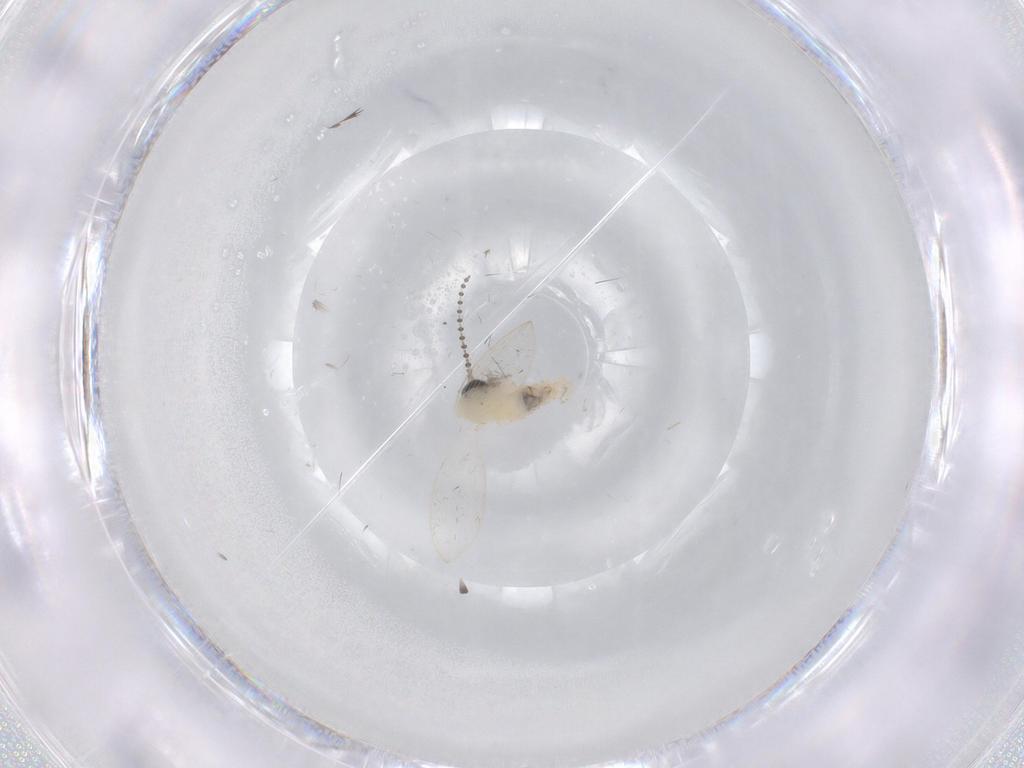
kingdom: Animalia
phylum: Arthropoda
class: Insecta
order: Diptera
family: Psychodidae
